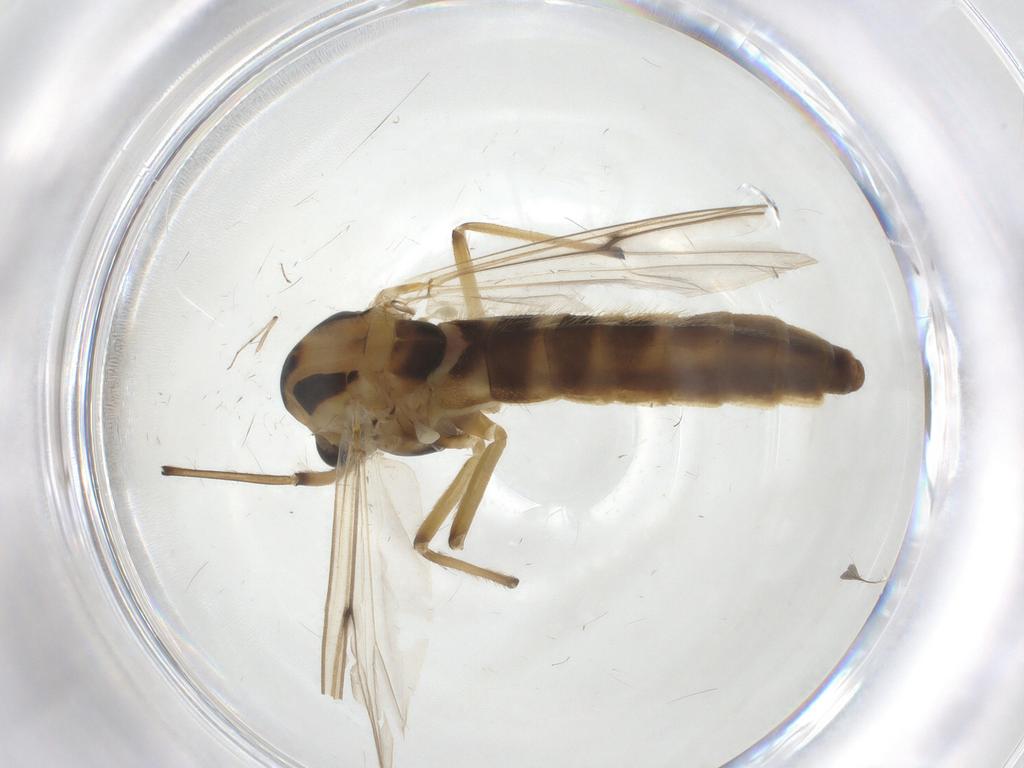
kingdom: Animalia
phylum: Arthropoda
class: Insecta
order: Diptera
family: Chironomidae
